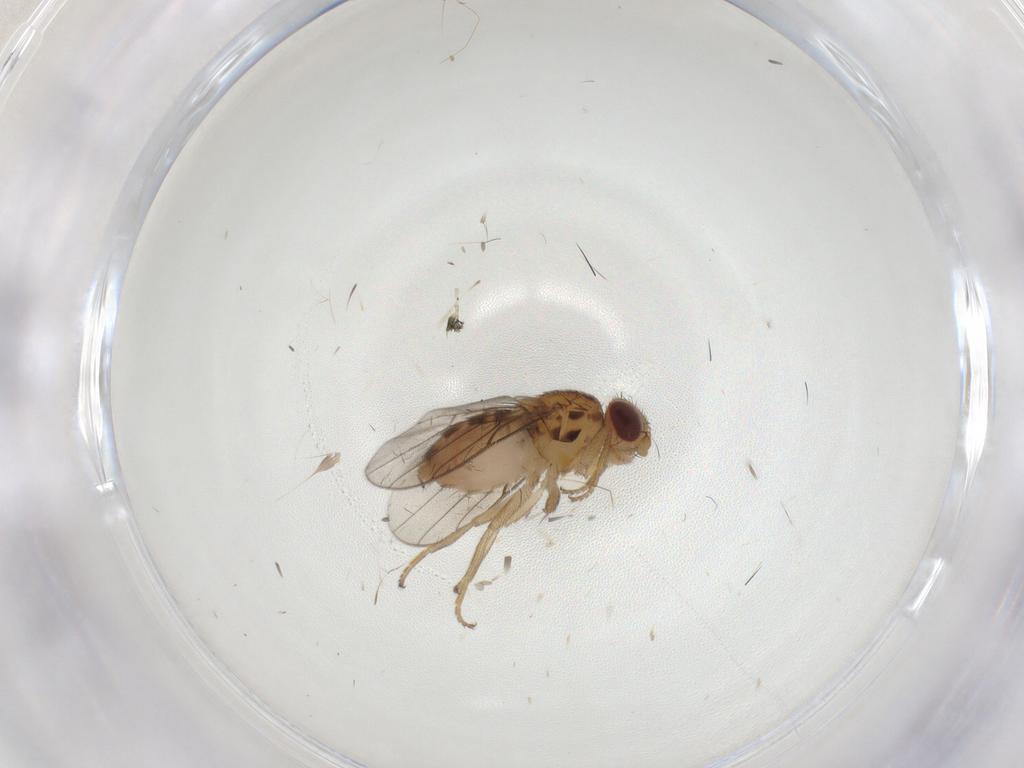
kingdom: Animalia
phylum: Arthropoda
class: Insecta
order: Diptera
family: Chloropidae
